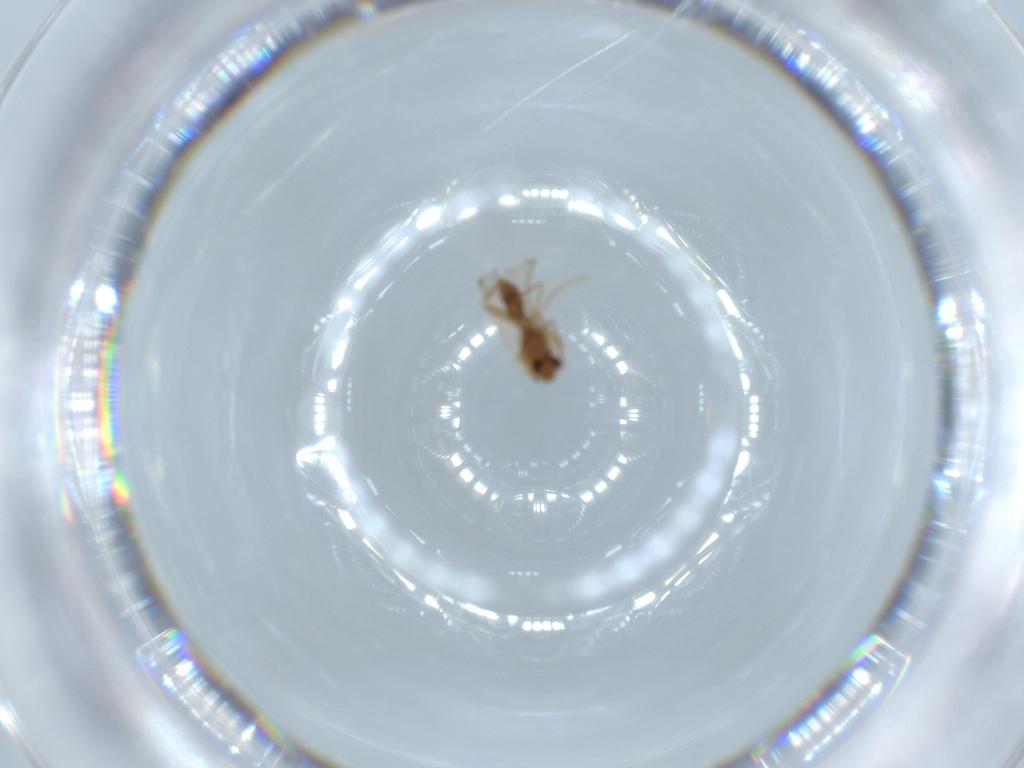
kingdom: Animalia
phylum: Arthropoda
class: Insecta
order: Diptera
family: Chironomidae
